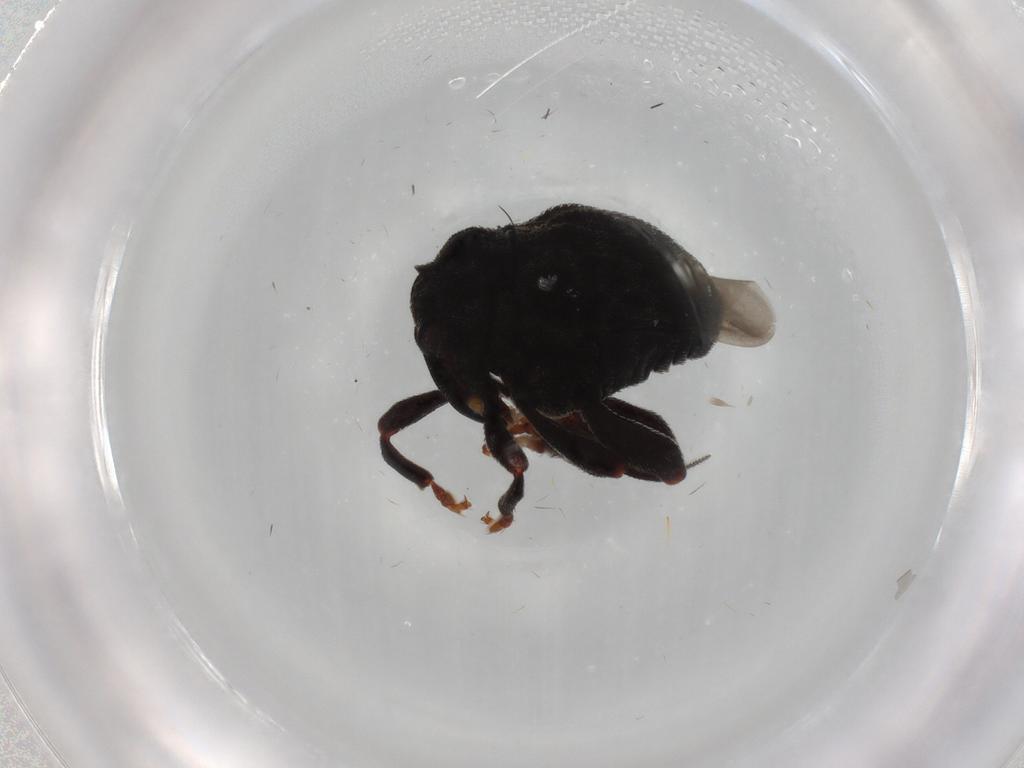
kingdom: Animalia
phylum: Arthropoda
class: Insecta
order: Coleoptera
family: Curculionidae
